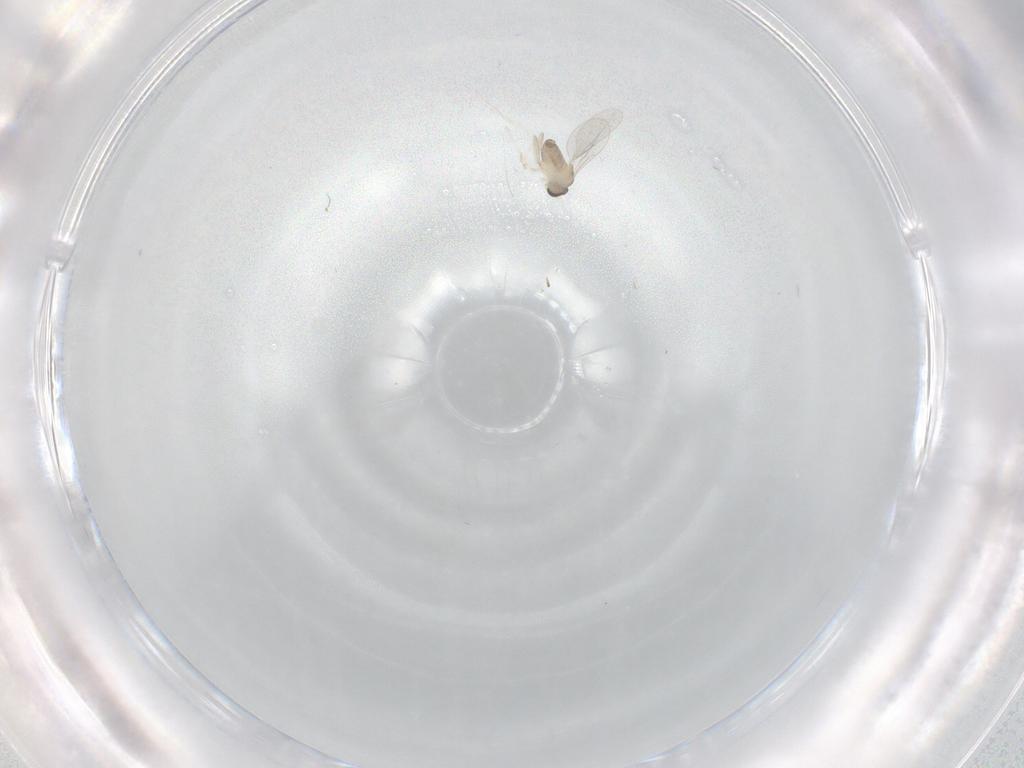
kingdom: Animalia
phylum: Arthropoda
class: Insecta
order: Diptera
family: Cecidomyiidae
